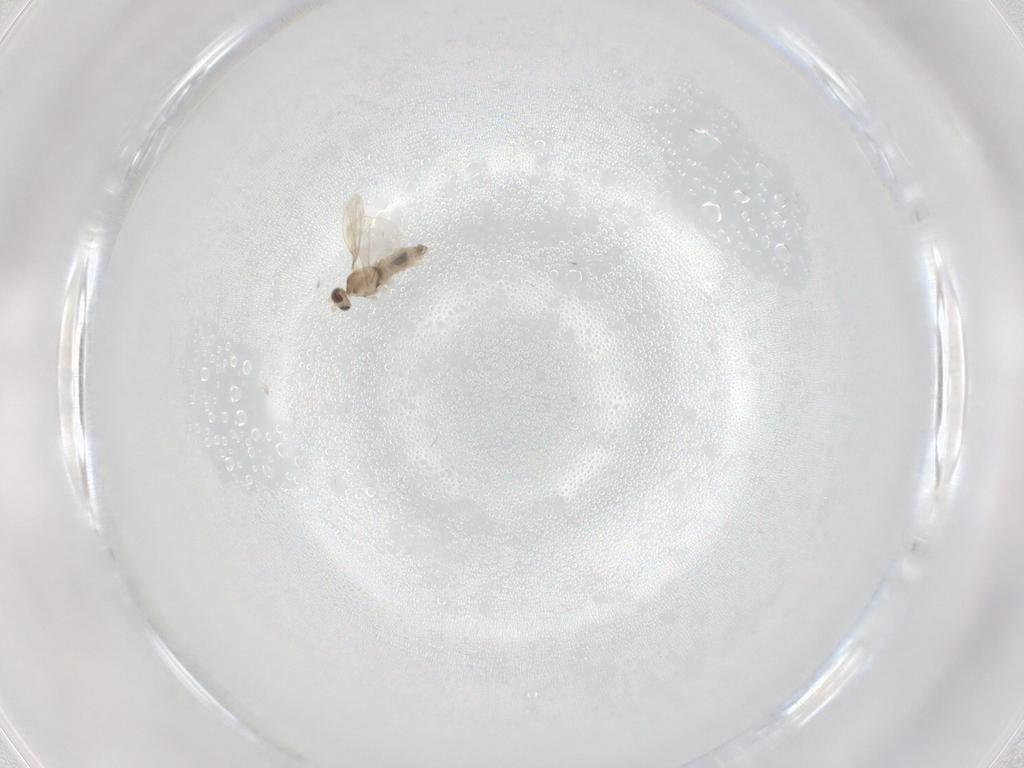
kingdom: Animalia
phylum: Arthropoda
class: Insecta
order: Diptera
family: Cecidomyiidae
